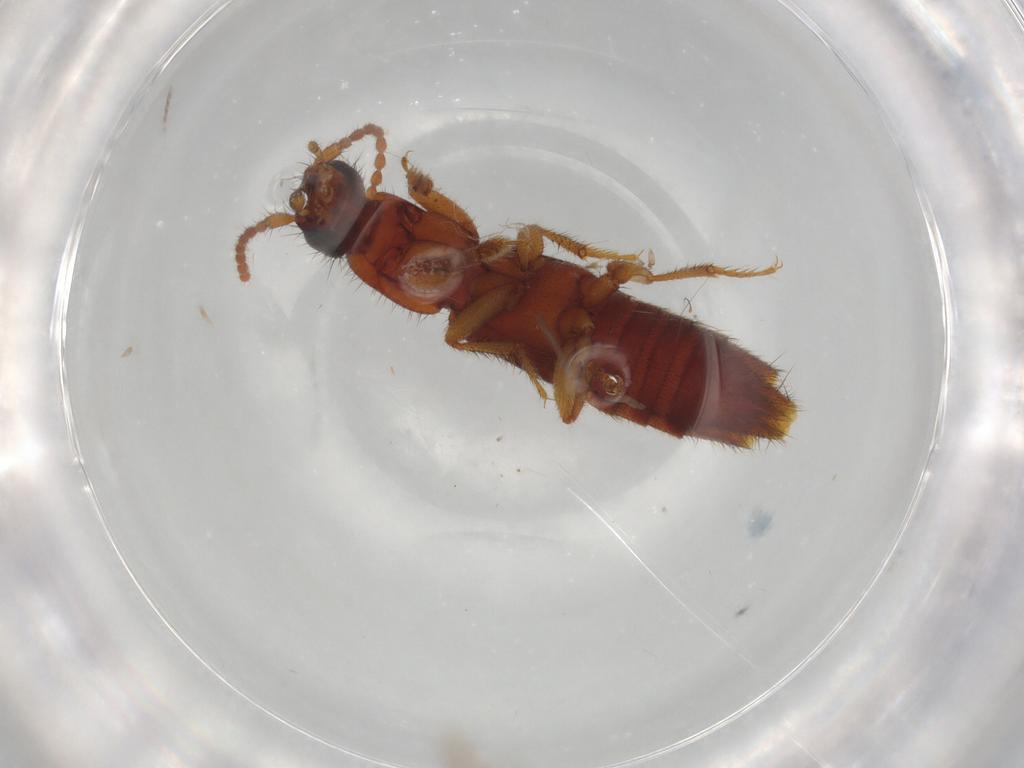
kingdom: Animalia
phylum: Arthropoda
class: Insecta
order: Coleoptera
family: Staphylinidae
